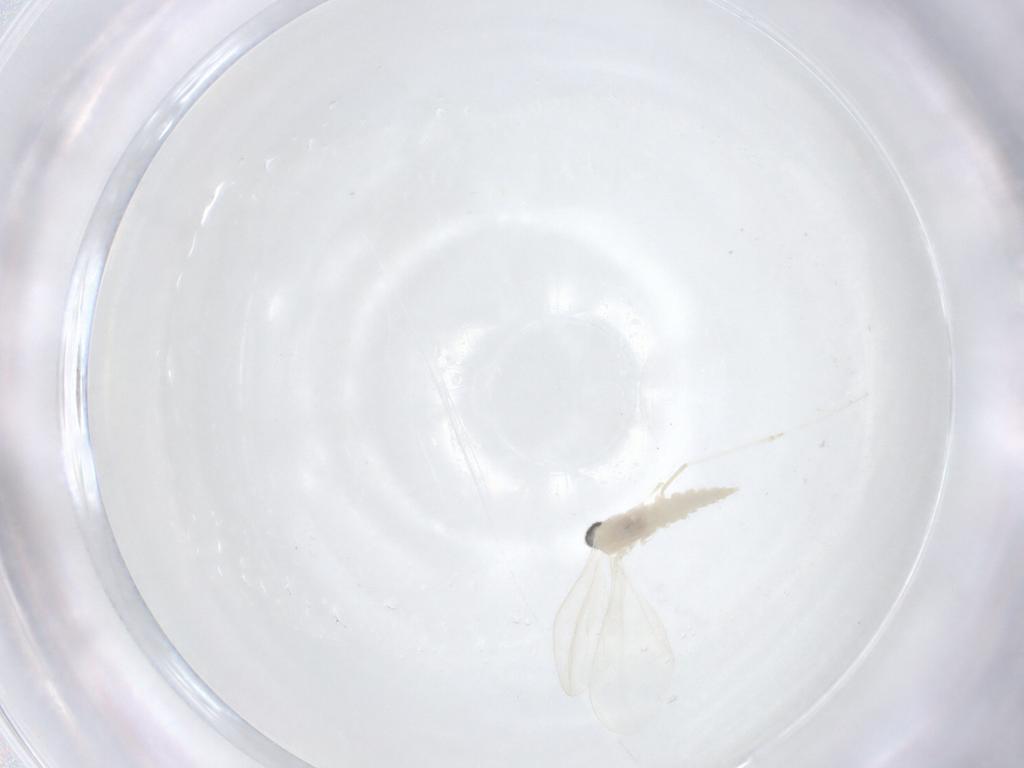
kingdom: Animalia
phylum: Arthropoda
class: Insecta
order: Diptera
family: Cecidomyiidae
